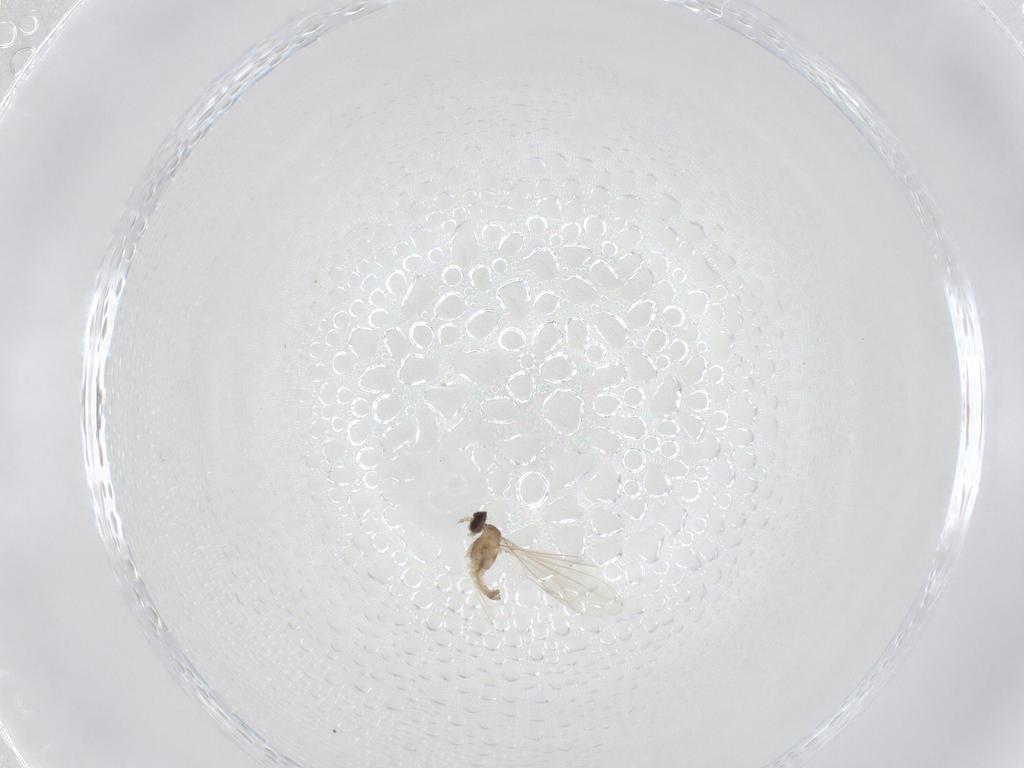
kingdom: Animalia
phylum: Arthropoda
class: Insecta
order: Diptera
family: Cecidomyiidae
